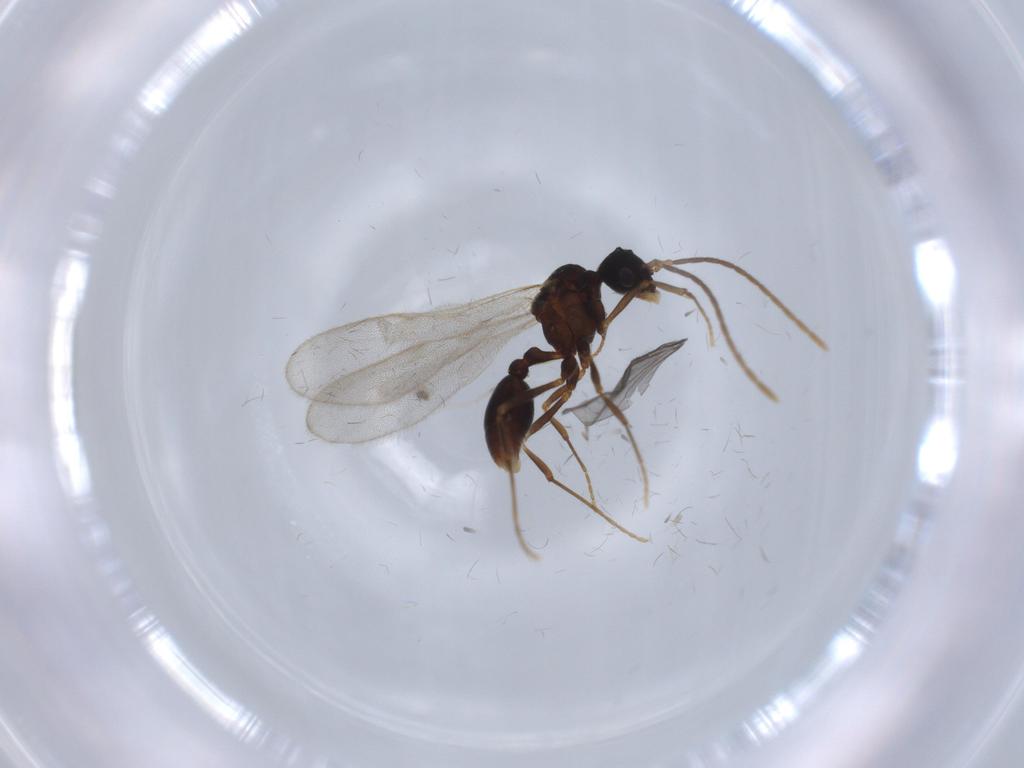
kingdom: Animalia
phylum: Arthropoda
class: Insecta
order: Hymenoptera
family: Formicidae
